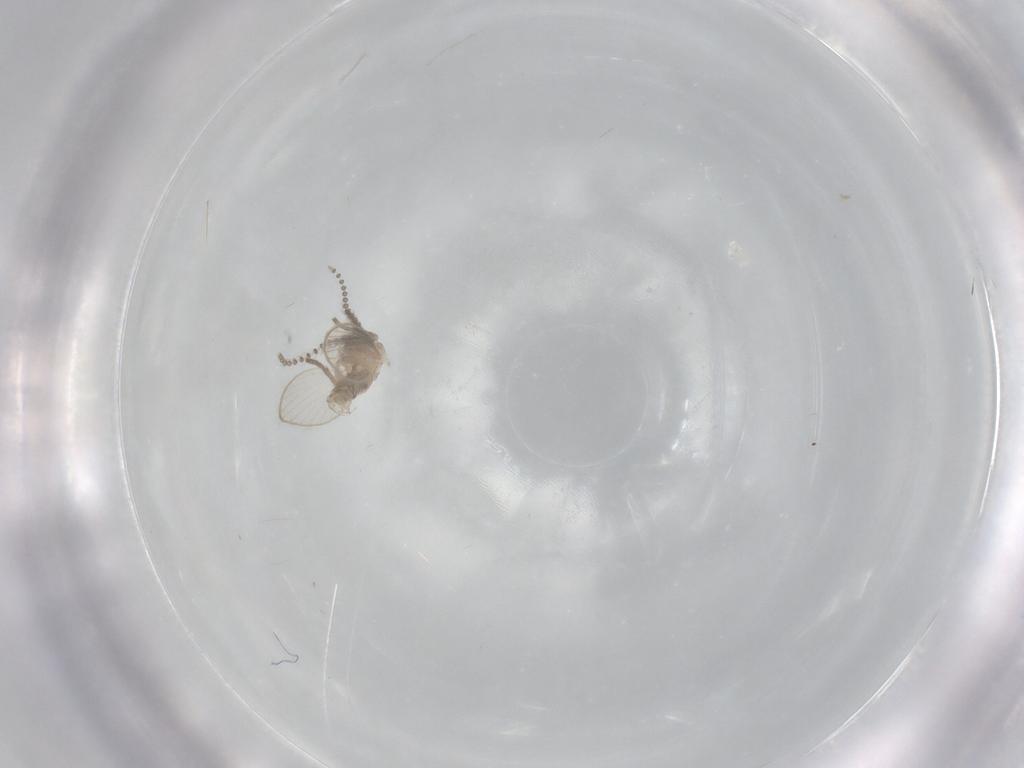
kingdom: Animalia
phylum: Arthropoda
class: Insecta
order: Diptera
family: Psychodidae
